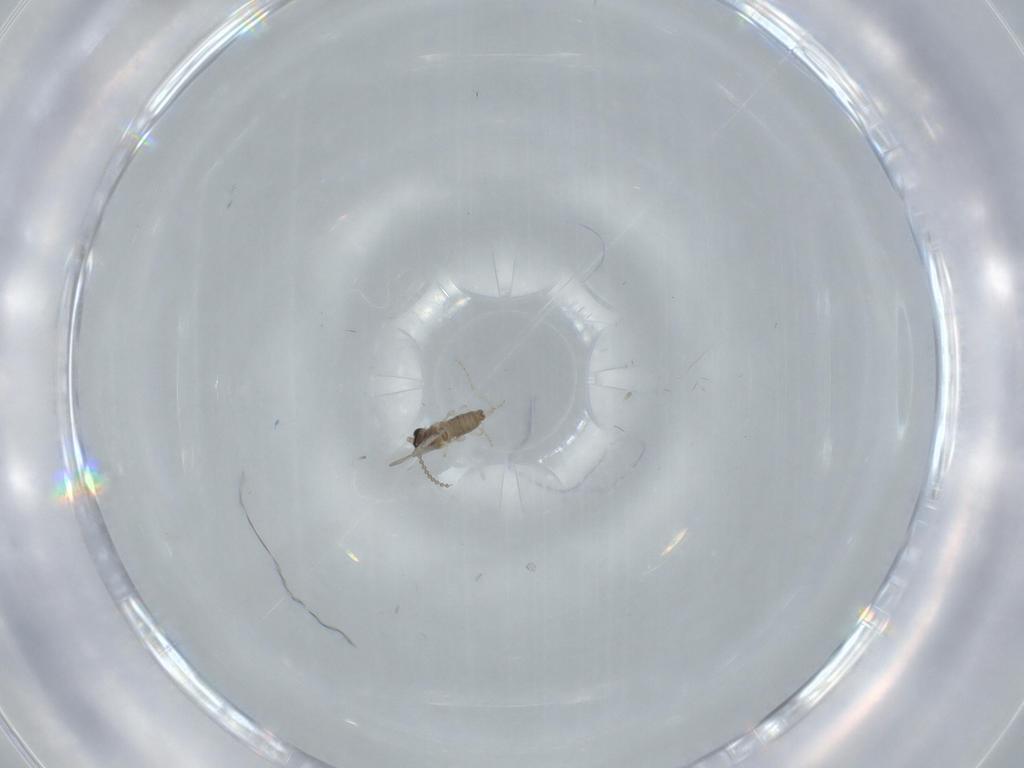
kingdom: Animalia
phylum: Arthropoda
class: Insecta
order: Diptera
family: Cecidomyiidae
